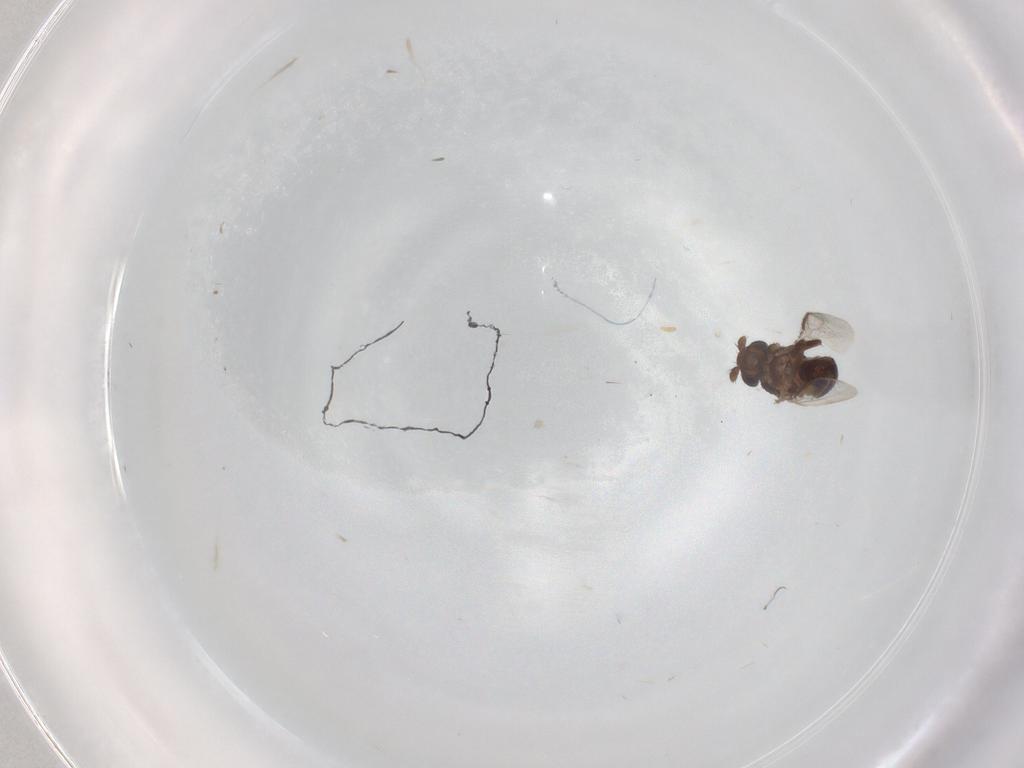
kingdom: Animalia
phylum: Arthropoda
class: Insecta
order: Diptera
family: Sphaeroceridae
